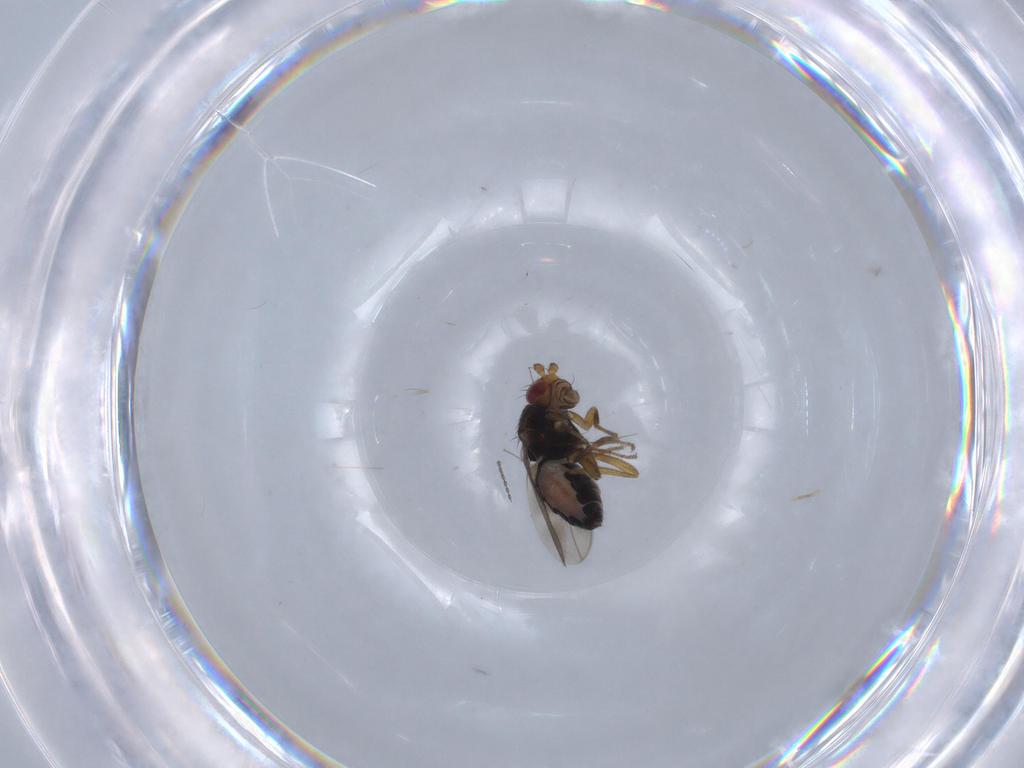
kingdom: Animalia
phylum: Arthropoda
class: Insecta
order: Diptera
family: Sphaeroceridae
